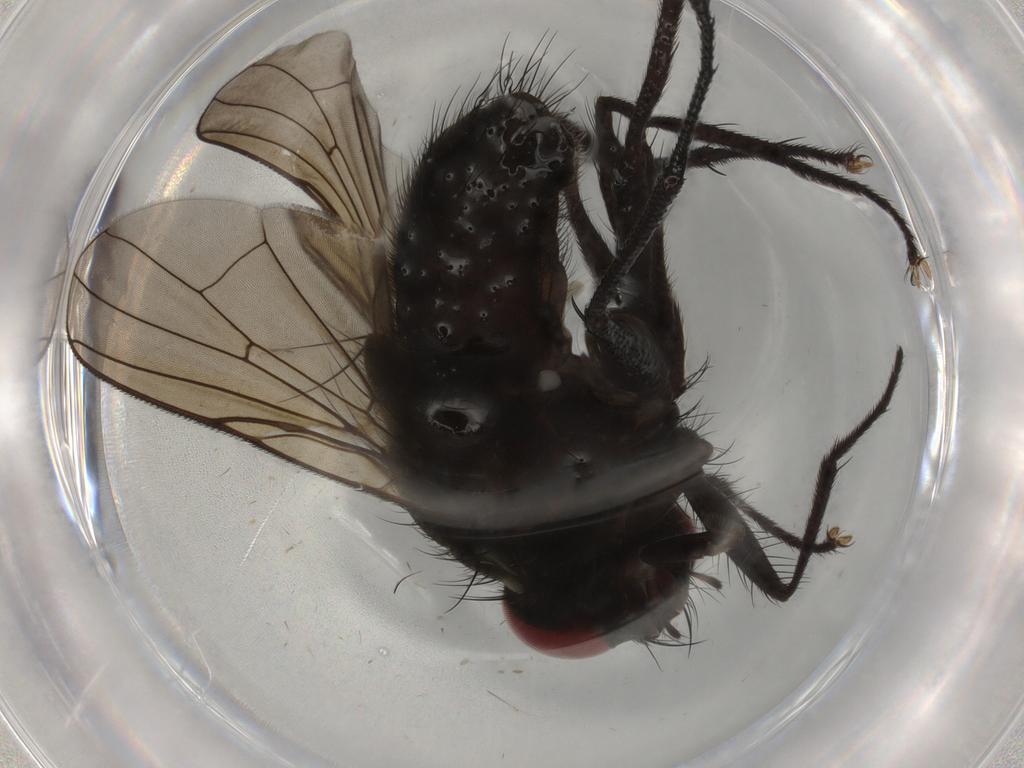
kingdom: Animalia
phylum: Arthropoda
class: Insecta
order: Diptera
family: Muscidae
